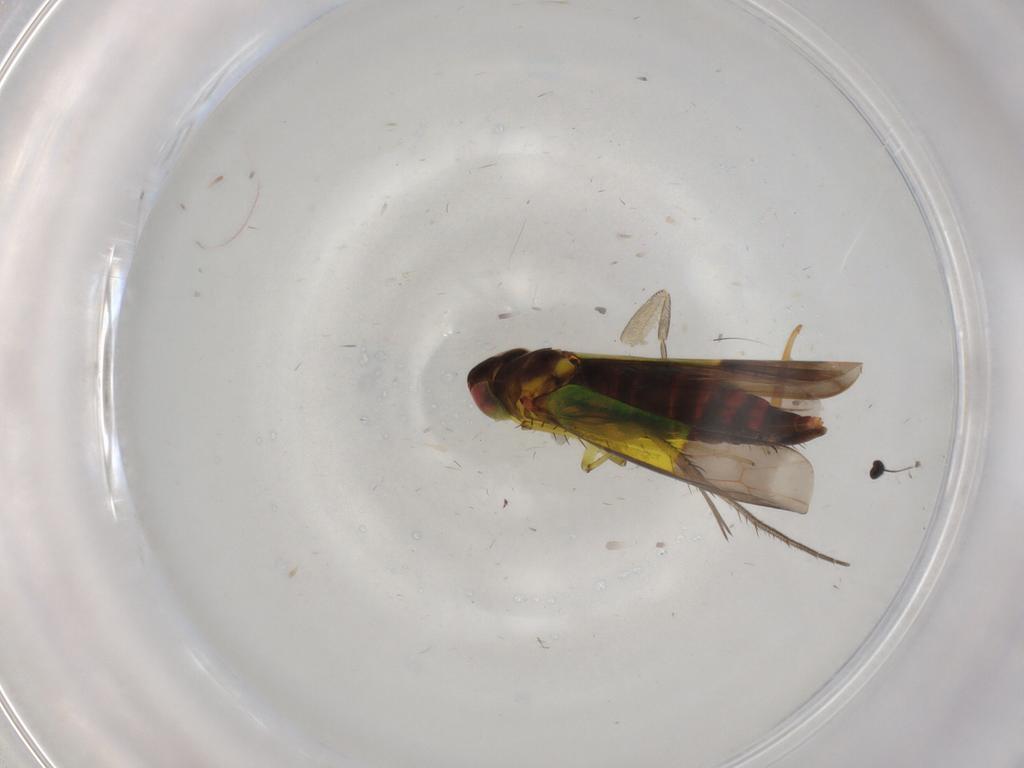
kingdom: Animalia
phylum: Arthropoda
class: Insecta
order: Hemiptera
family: Cicadellidae
